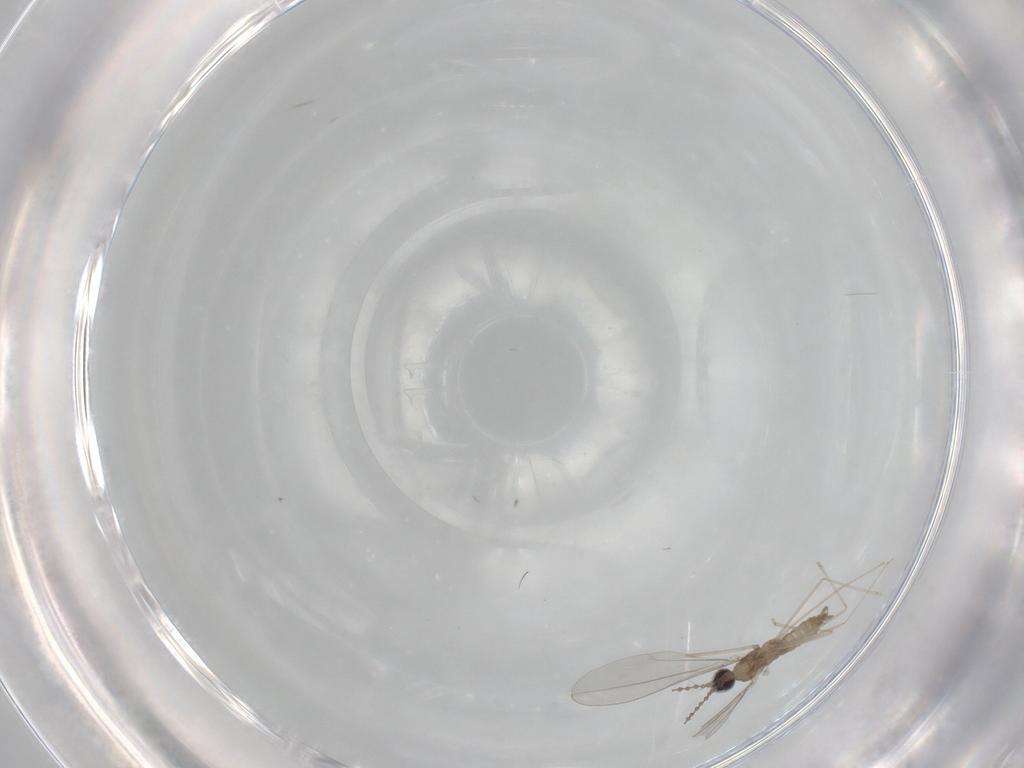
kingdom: Animalia
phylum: Arthropoda
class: Insecta
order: Diptera
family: Cecidomyiidae
